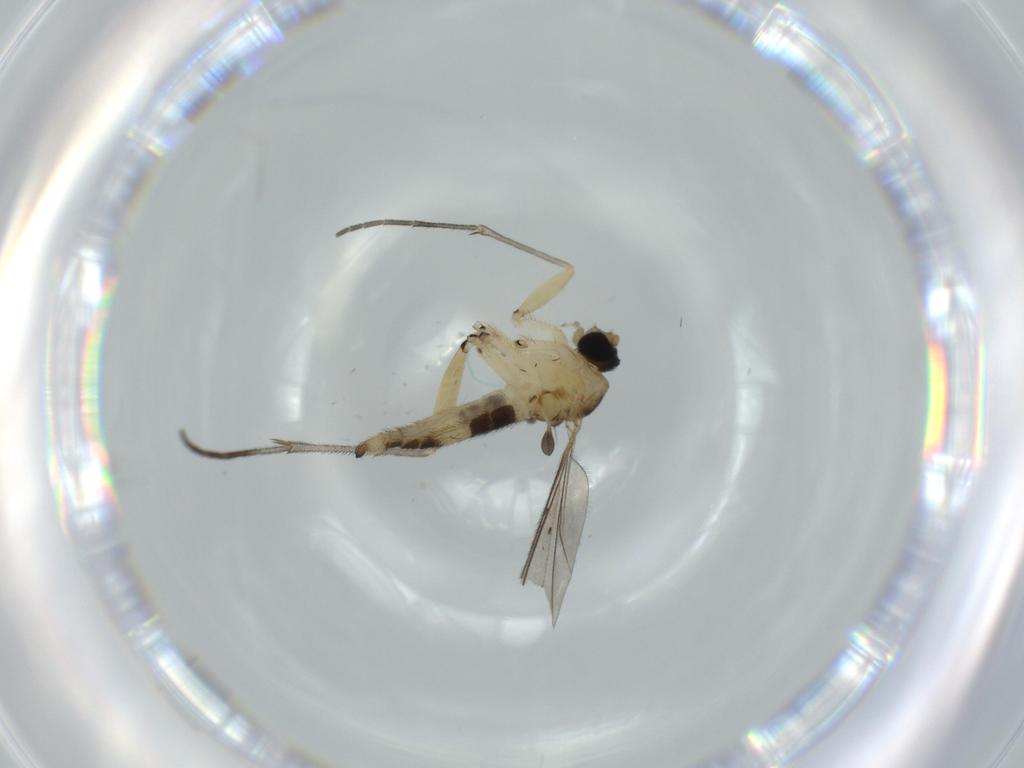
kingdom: Animalia
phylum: Arthropoda
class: Insecta
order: Diptera
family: Sciaridae
